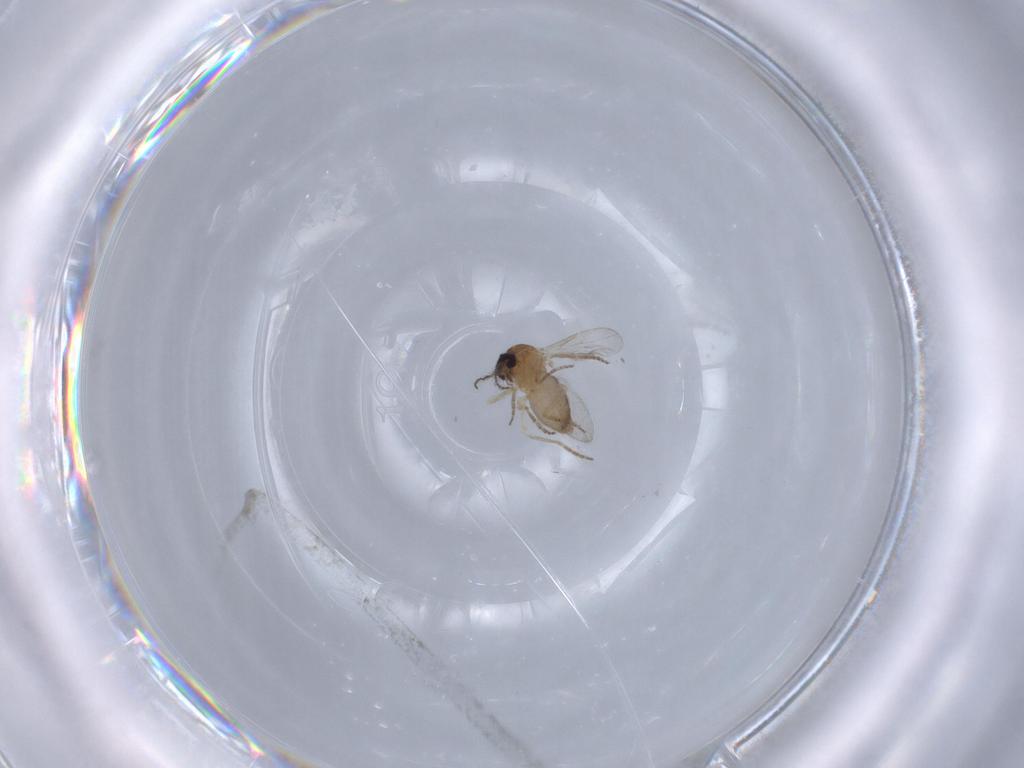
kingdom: Animalia
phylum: Arthropoda
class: Insecta
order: Diptera
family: Ceratopogonidae
